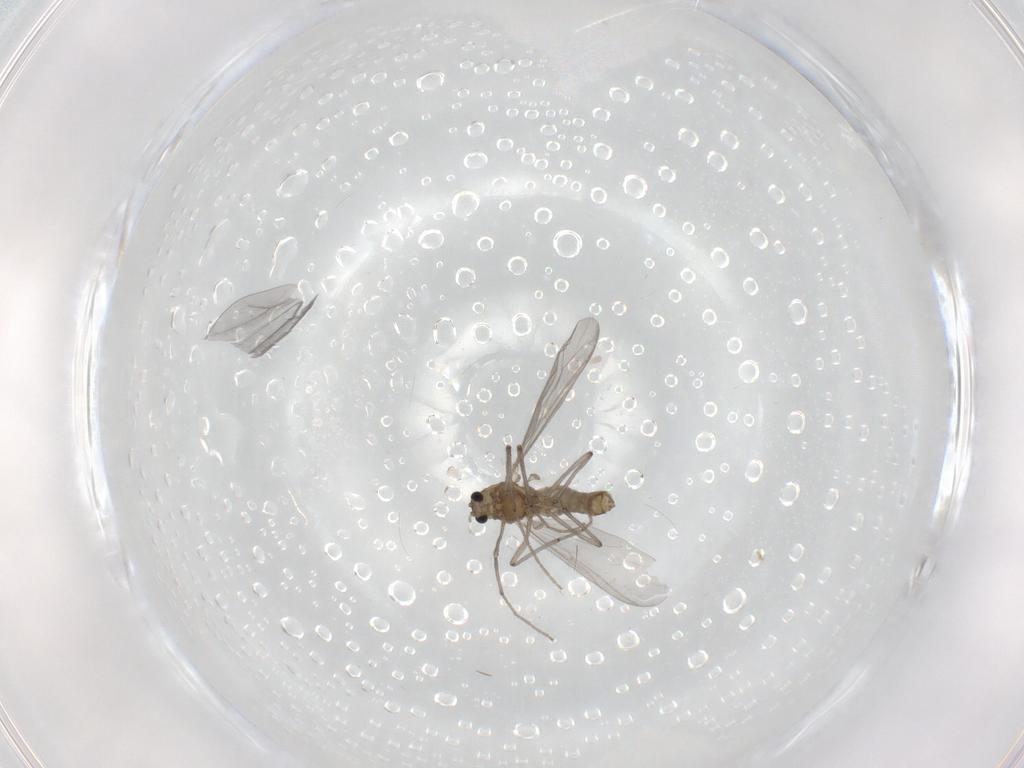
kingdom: Animalia
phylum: Arthropoda
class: Insecta
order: Diptera
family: Chironomidae
